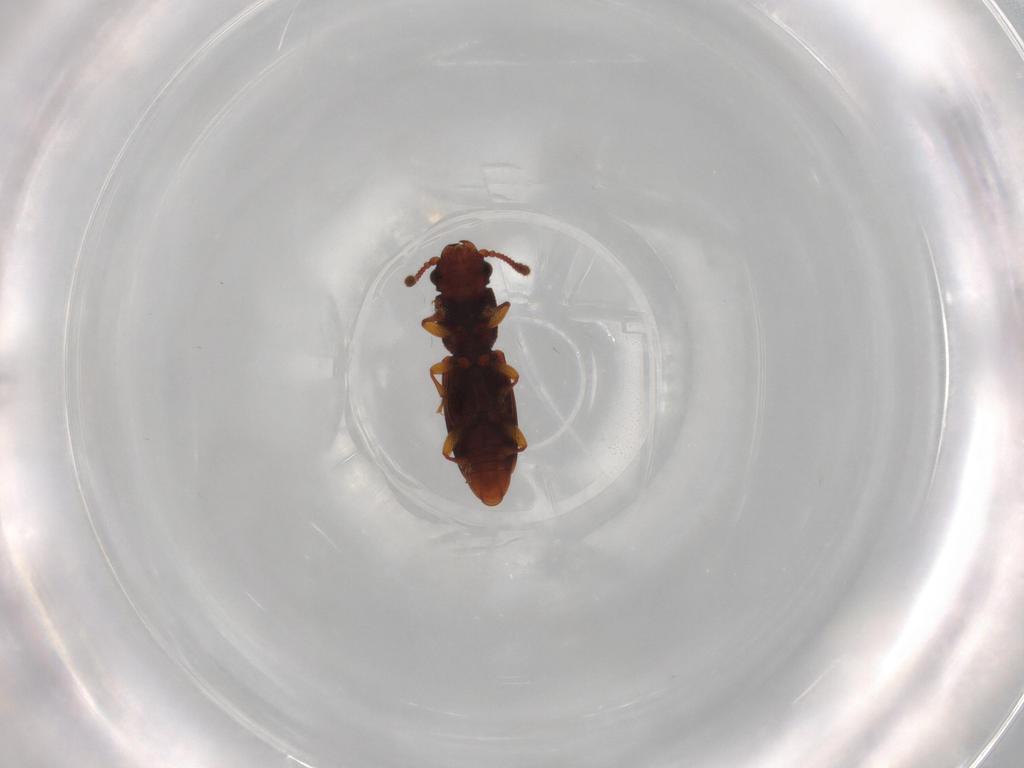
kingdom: Animalia
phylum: Arthropoda
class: Insecta
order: Coleoptera
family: Monotomidae
